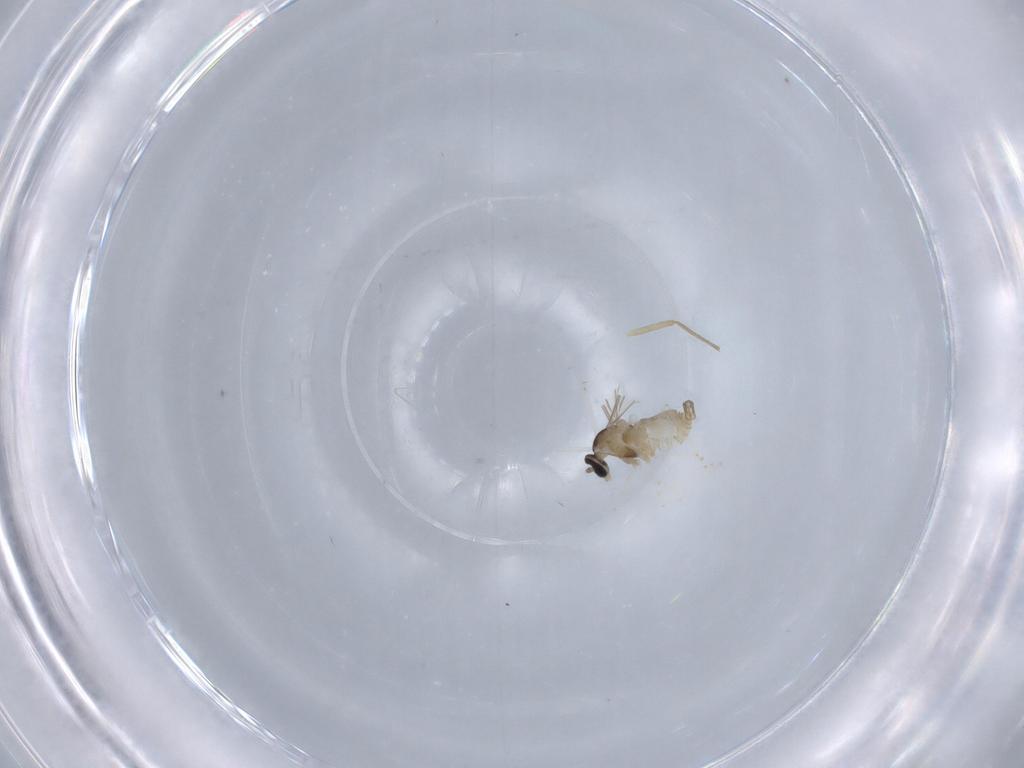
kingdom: Animalia
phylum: Arthropoda
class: Insecta
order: Diptera
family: Cecidomyiidae
